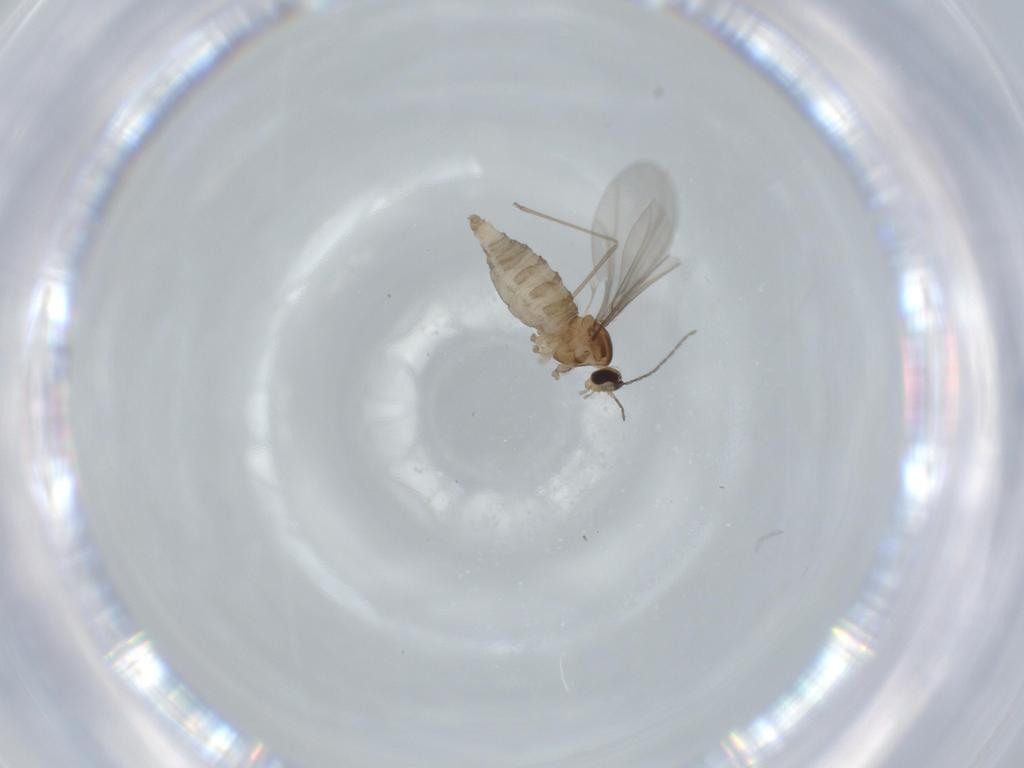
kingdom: Animalia
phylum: Arthropoda
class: Insecta
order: Diptera
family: Cecidomyiidae
